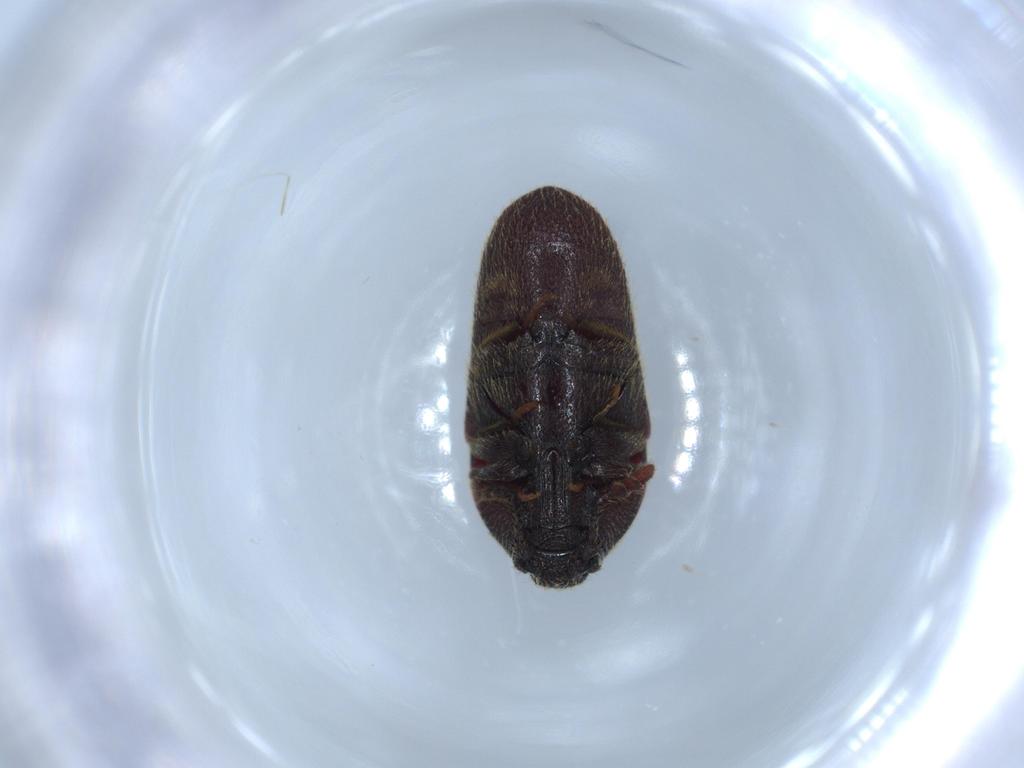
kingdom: Animalia
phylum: Arthropoda
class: Insecta
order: Coleoptera
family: Throscidae
